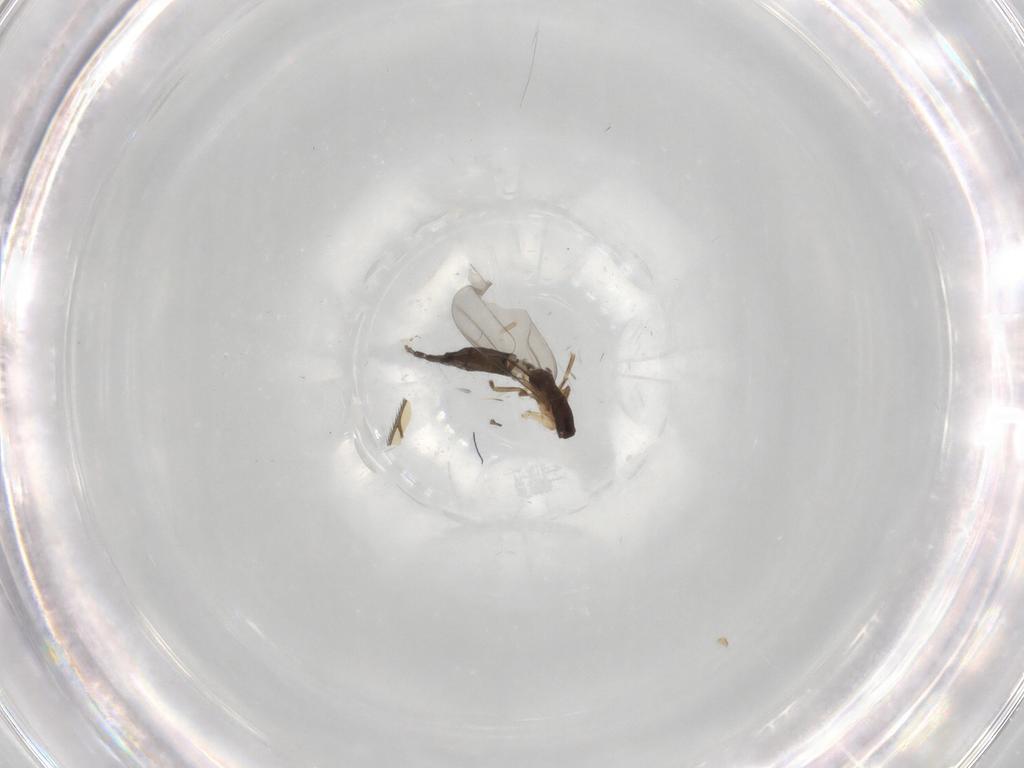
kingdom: Animalia
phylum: Arthropoda
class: Insecta
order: Diptera
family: Phoridae
